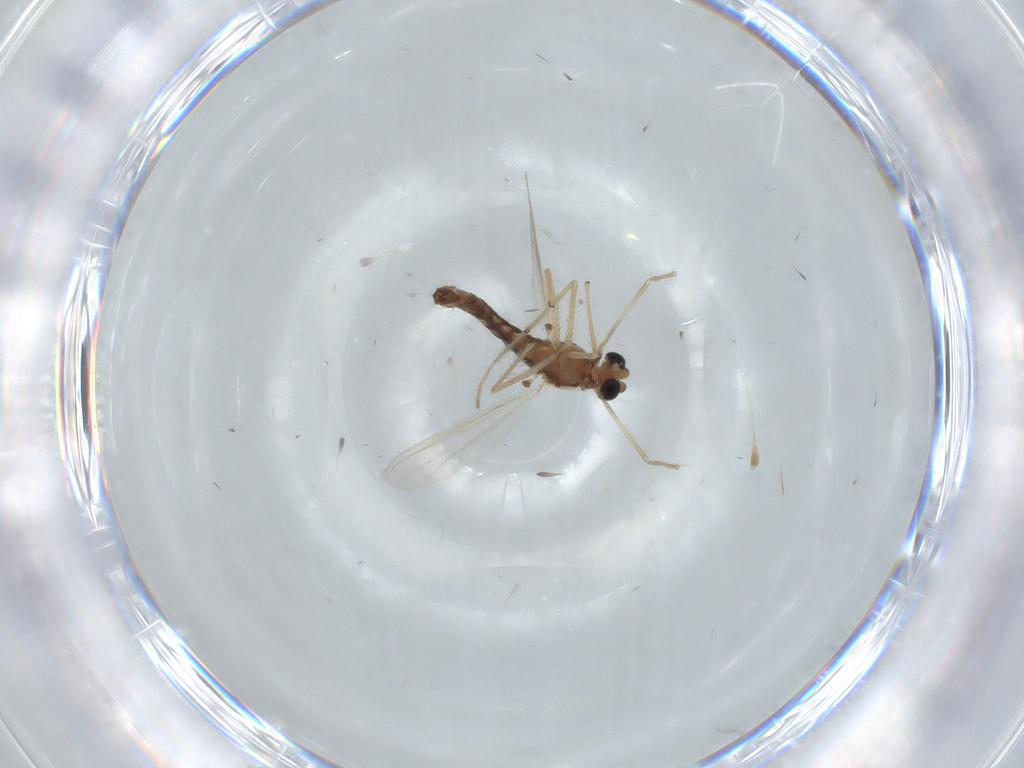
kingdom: Animalia
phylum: Arthropoda
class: Insecta
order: Diptera
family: Chironomidae
